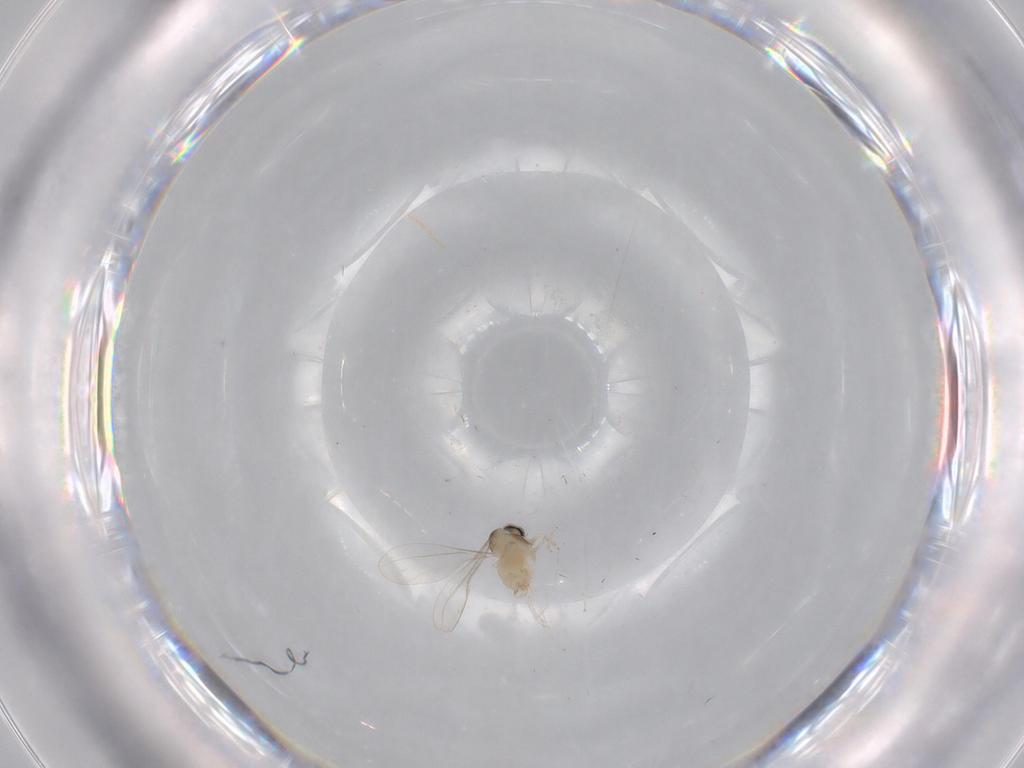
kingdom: Animalia
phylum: Arthropoda
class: Insecta
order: Diptera
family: Cecidomyiidae
